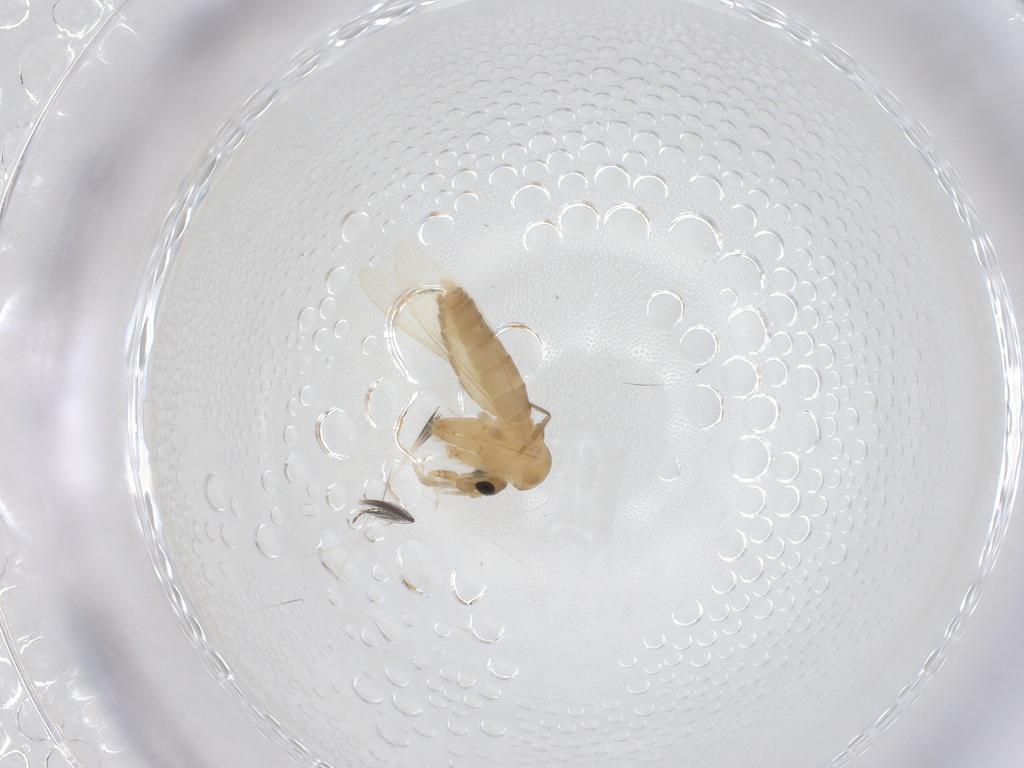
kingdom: Animalia
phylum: Arthropoda
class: Insecta
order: Diptera
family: Psychodidae
